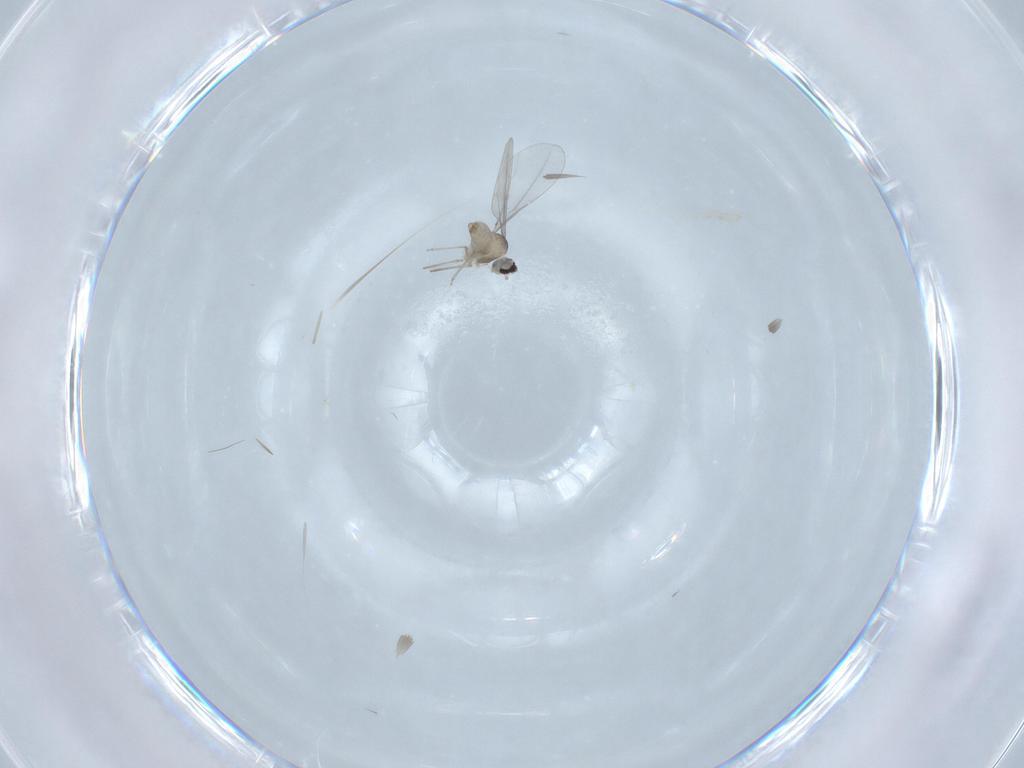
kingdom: Animalia
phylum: Arthropoda
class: Insecta
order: Diptera
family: Cecidomyiidae
